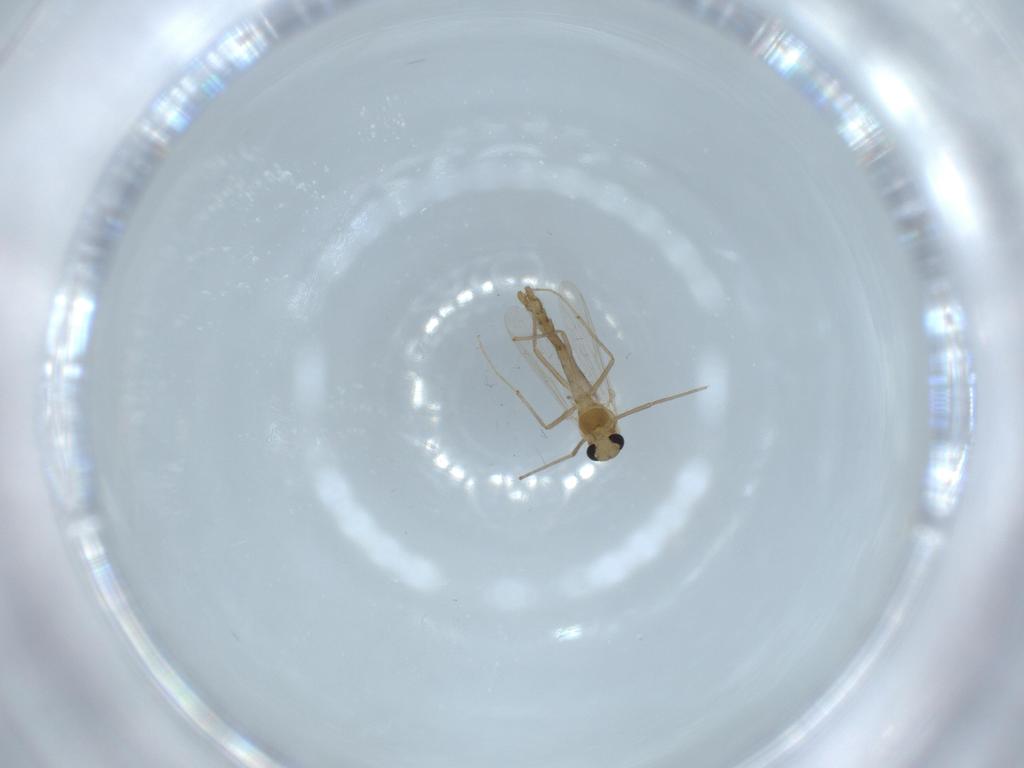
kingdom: Animalia
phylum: Arthropoda
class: Insecta
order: Diptera
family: Chironomidae
